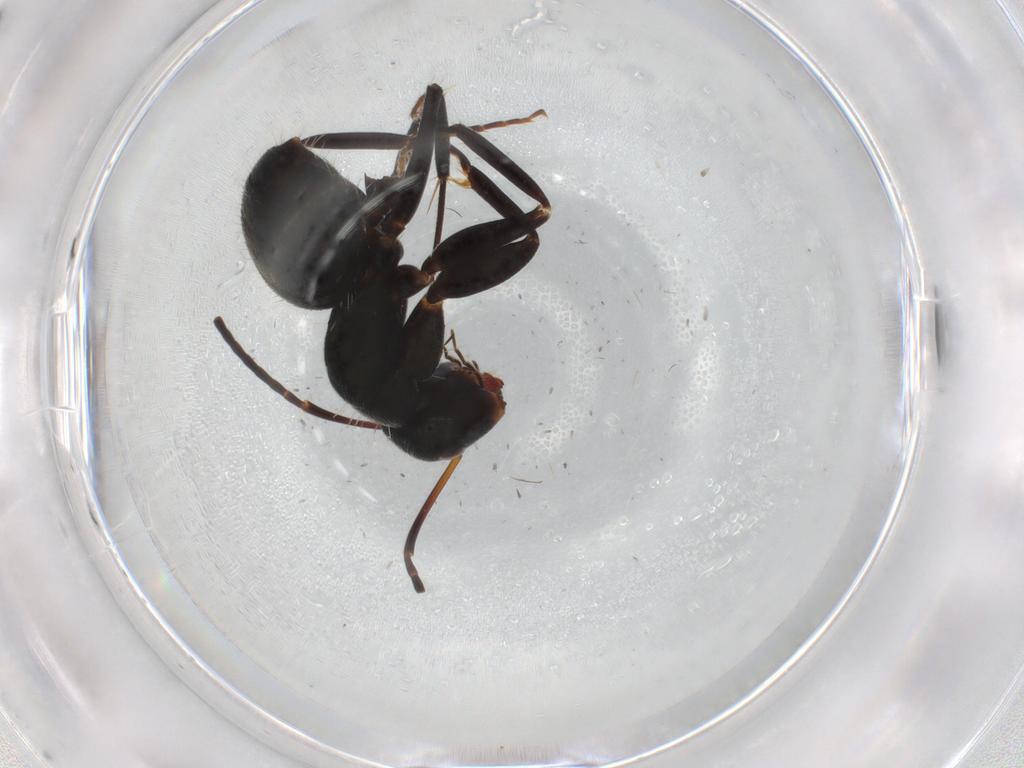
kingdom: Animalia
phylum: Arthropoda
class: Insecta
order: Hymenoptera
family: Formicidae
